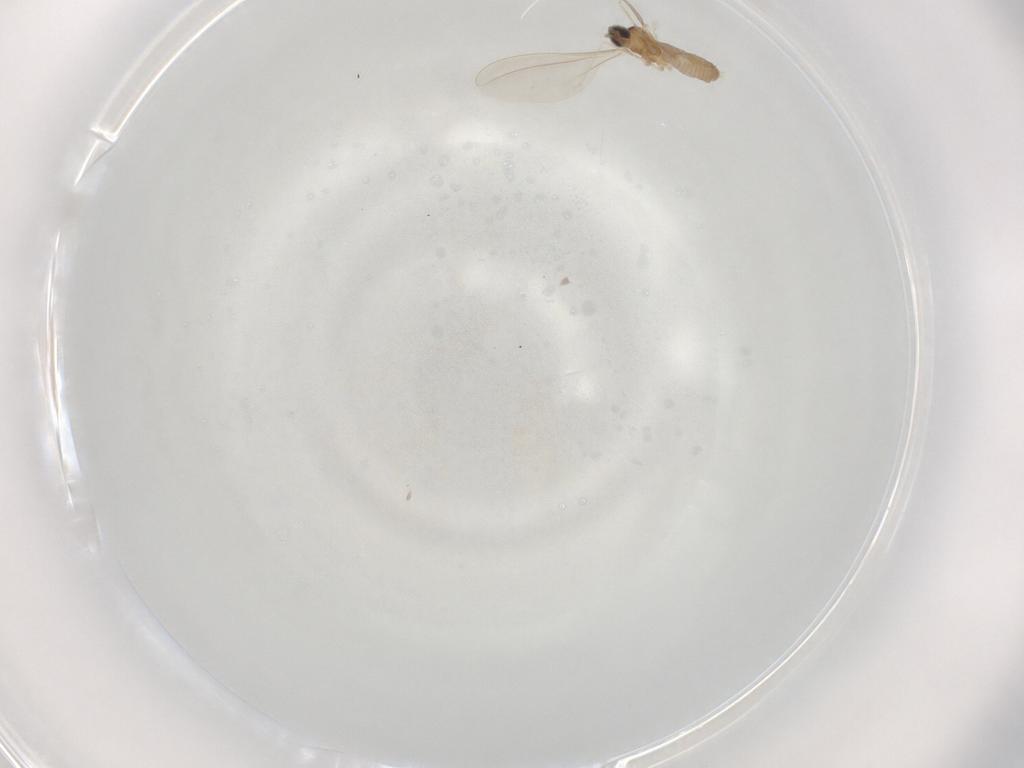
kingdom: Animalia
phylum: Arthropoda
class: Insecta
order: Diptera
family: Cecidomyiidae
